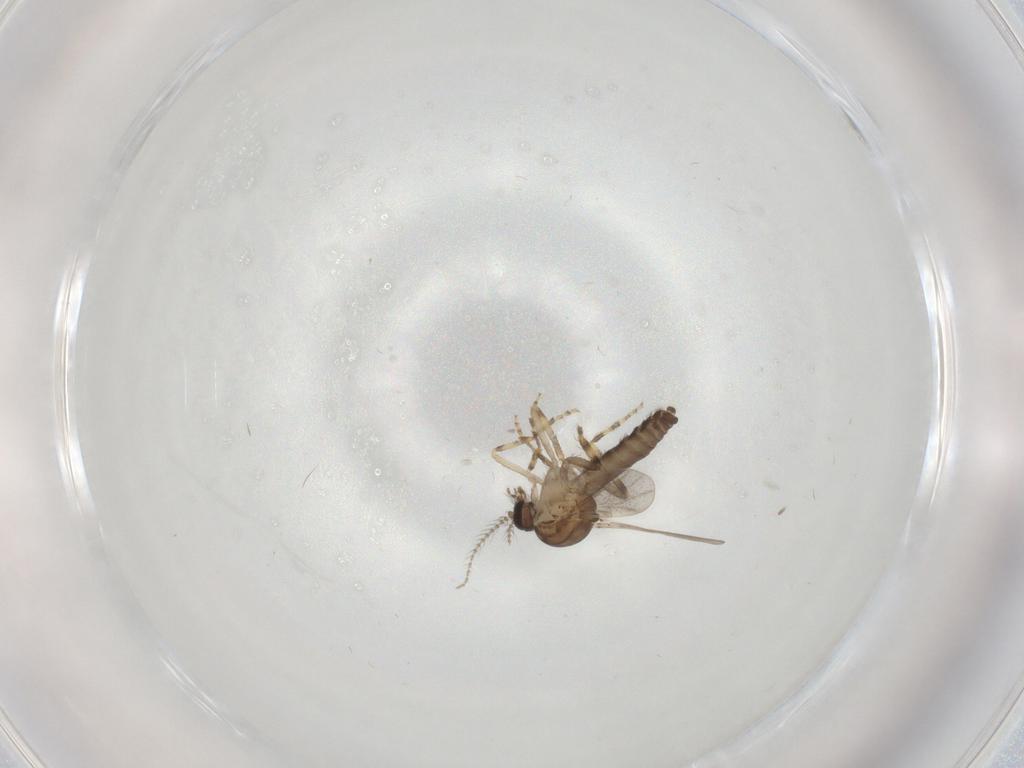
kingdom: Animalia
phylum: Arthropoda
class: Insecta
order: Diptera
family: Ceratopogonidae
